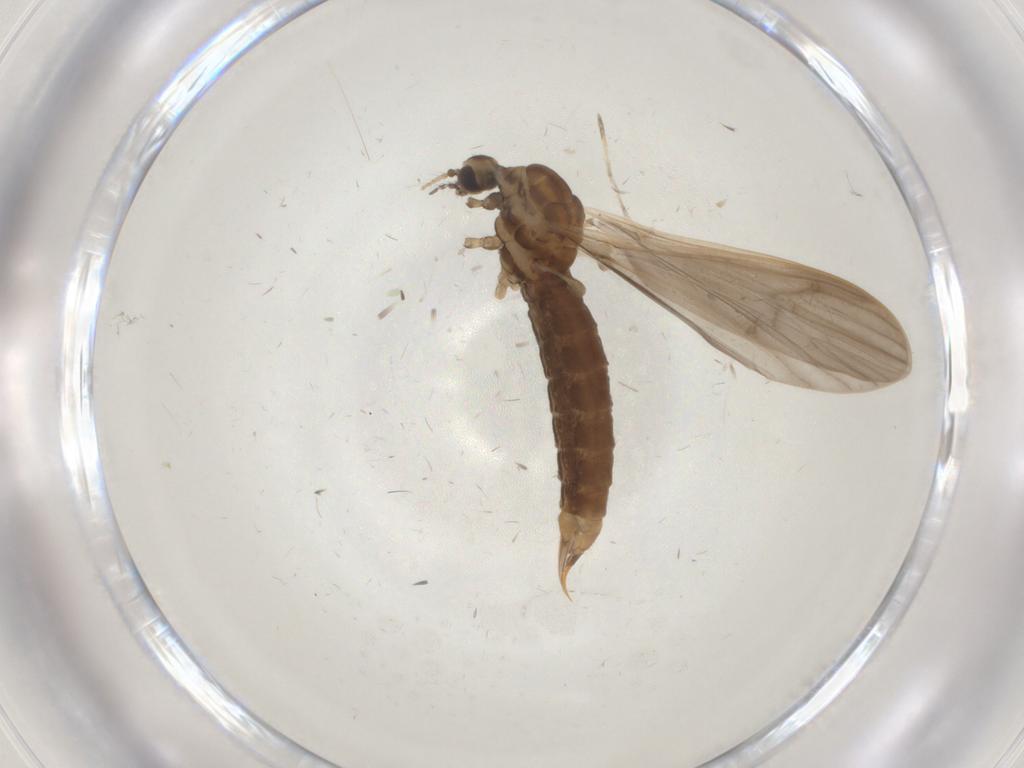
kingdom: Animalia
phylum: Arthropoda
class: Insecta
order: Diptera
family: Limoniidae
